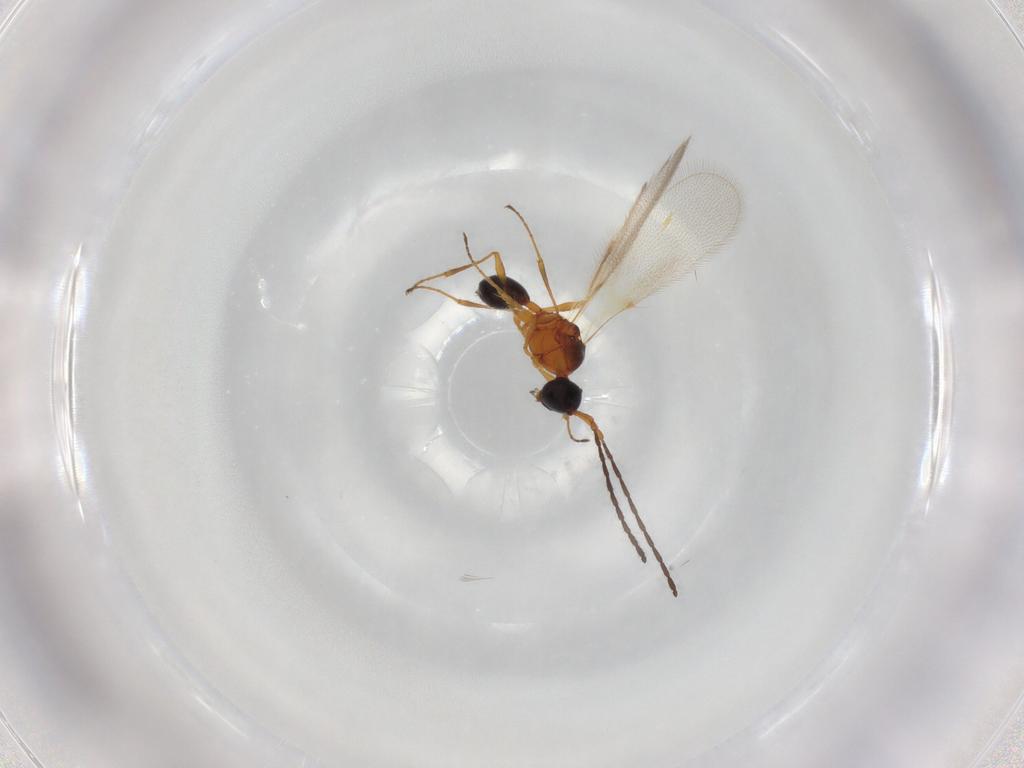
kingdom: Animalia
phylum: Arthropoda
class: Insecta
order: Hymenoptera
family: Diapriidae
